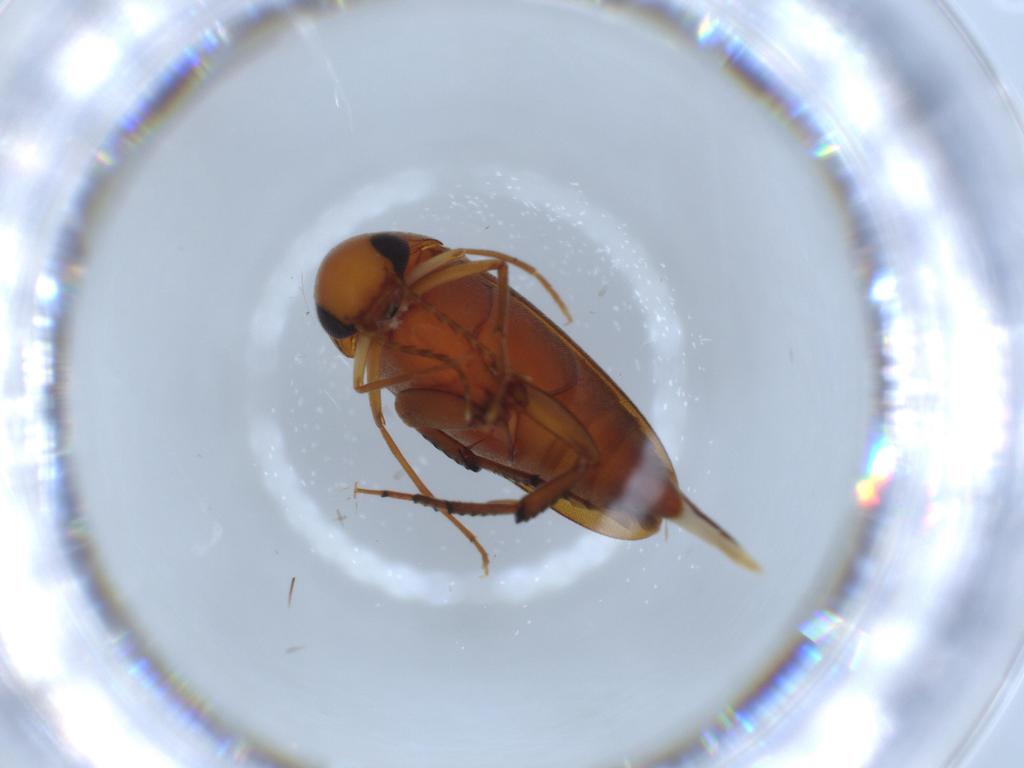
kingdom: Animalia
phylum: Arthropoda
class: Insecta
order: Coleoptera
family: Mordellidae
